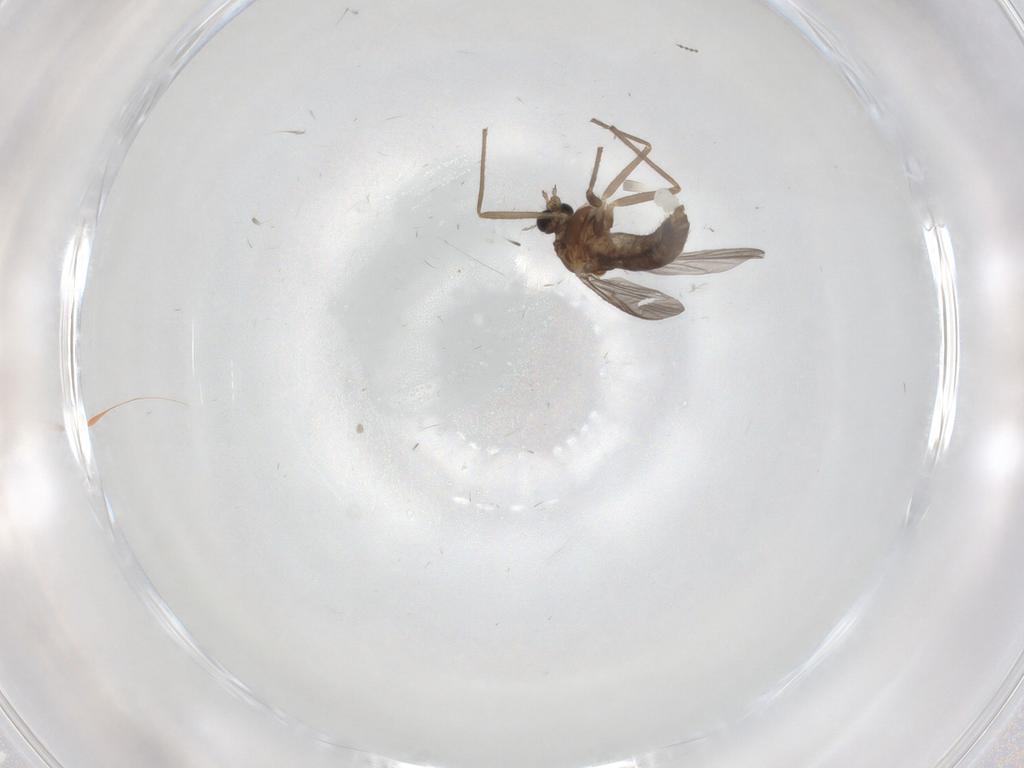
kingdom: Animalia
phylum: Arthropoda
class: Insecta
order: Diptera
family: Chironomidae
